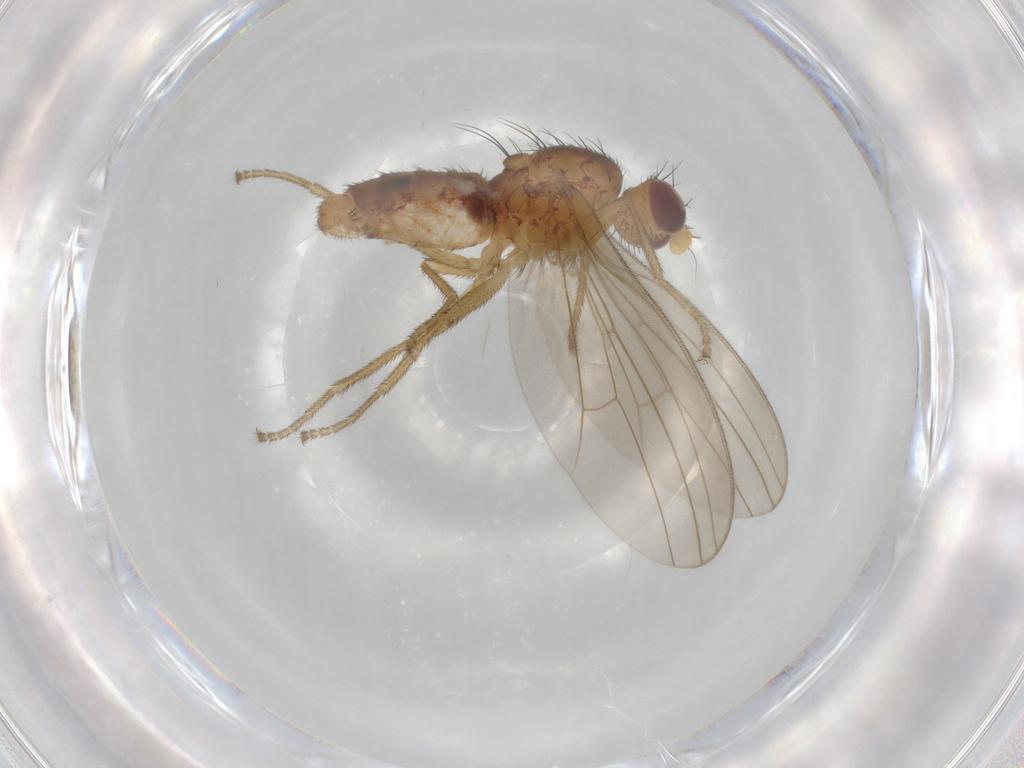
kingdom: Animalia
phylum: Arthropoda
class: Insecta
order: Diptera
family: Natalimyzidae
